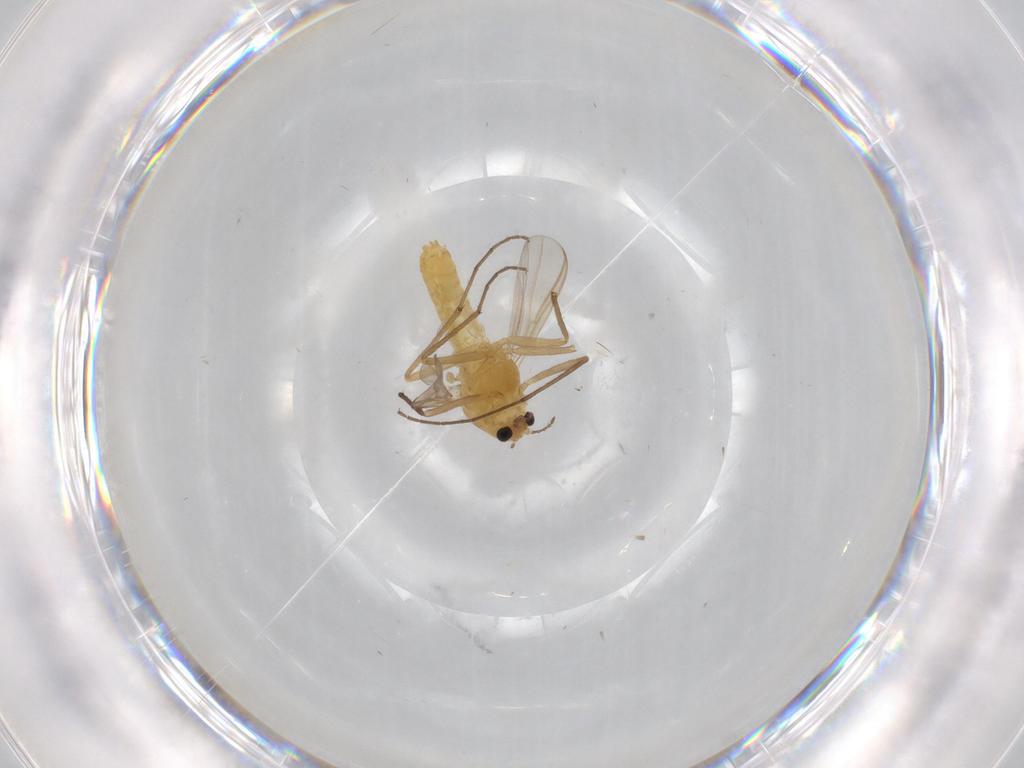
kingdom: Animalia
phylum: Arthropoda
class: Insecta
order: Diptera
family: Chironomidae
